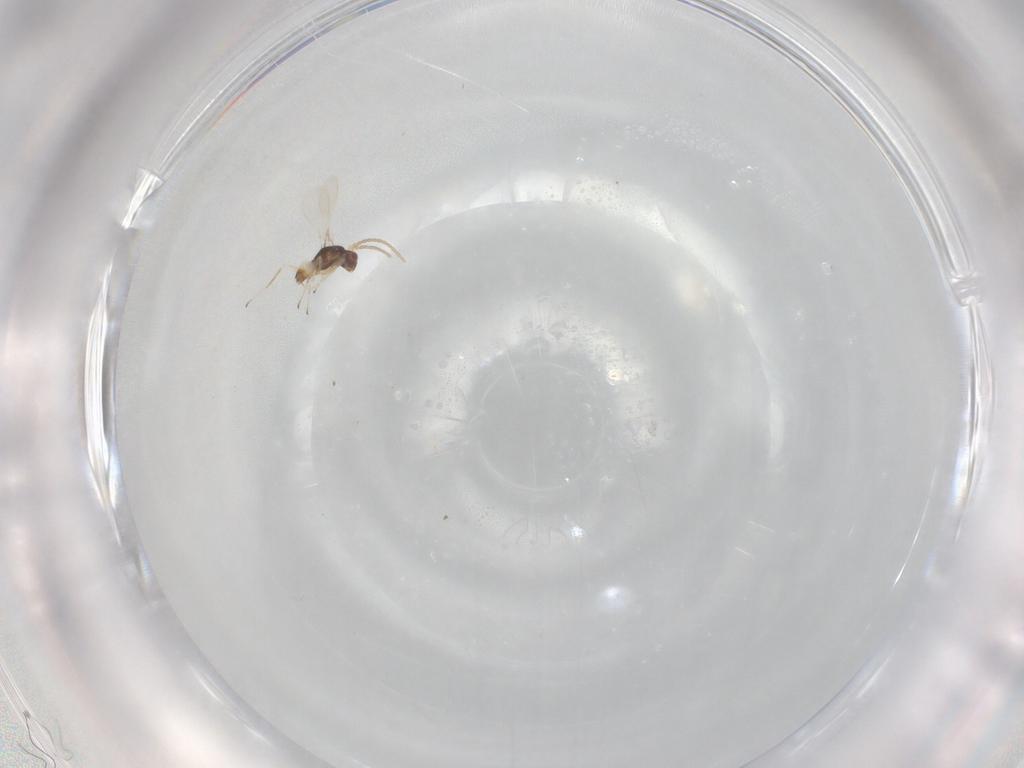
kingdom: Animalia
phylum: Arthropoda
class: Insecta
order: Hymenoptera
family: Mymaridae
